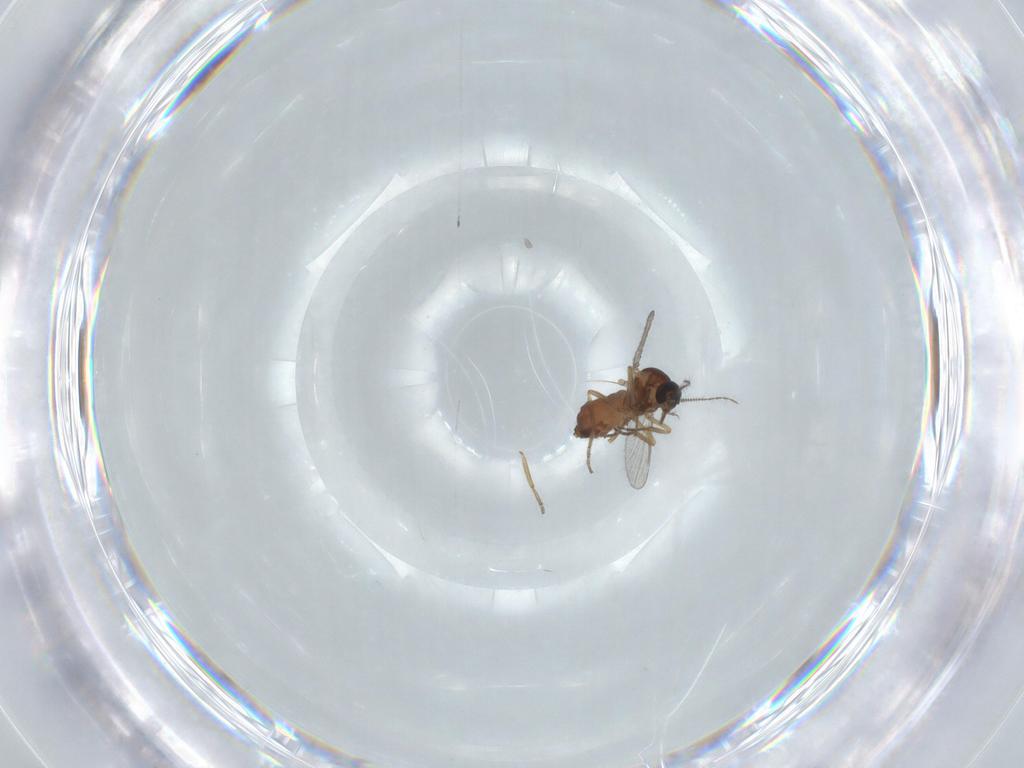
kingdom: Animalia
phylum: Arthropoda
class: Insecta
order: Diptera
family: Ceratopogonidae
